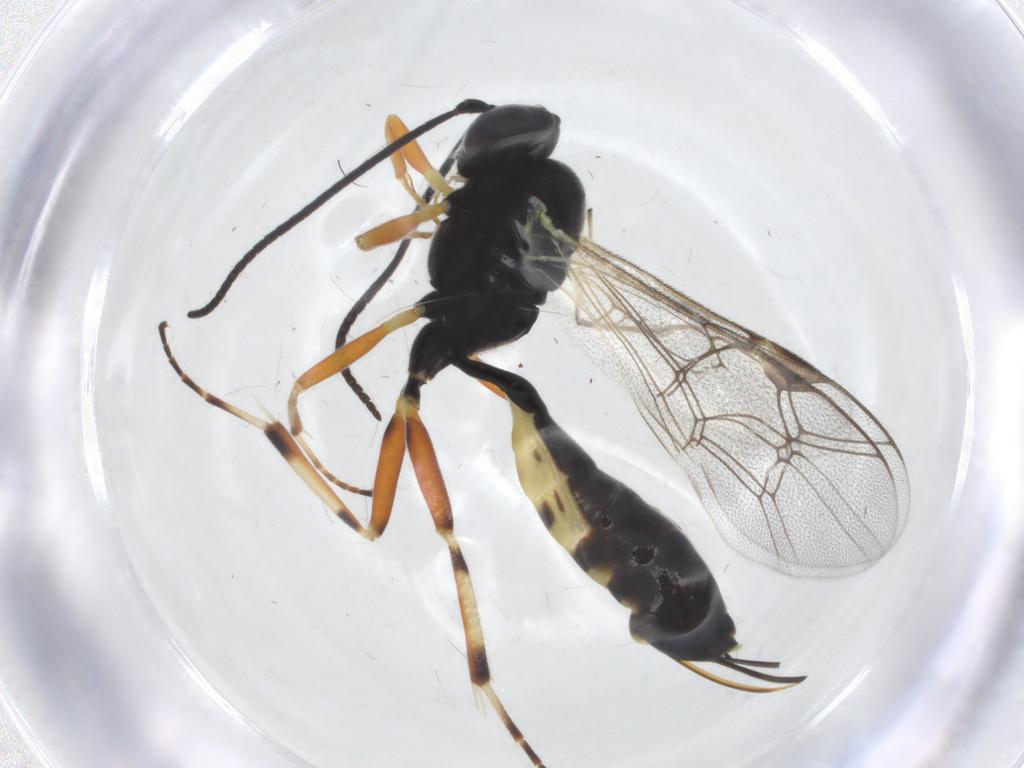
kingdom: Animalia
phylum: Arthropoda
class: Insecta
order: Hymenoptera
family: Ichneumonidae
